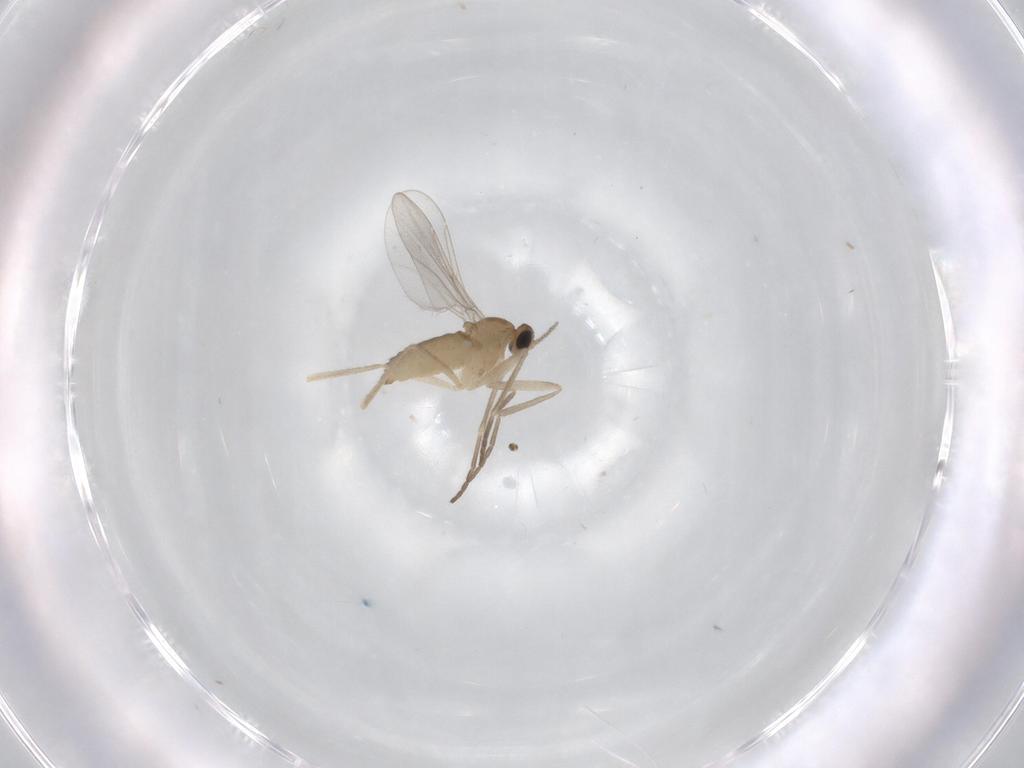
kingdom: Animalia
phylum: Arthropoda
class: Insecta
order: Diptera
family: Cecidomyiidae
